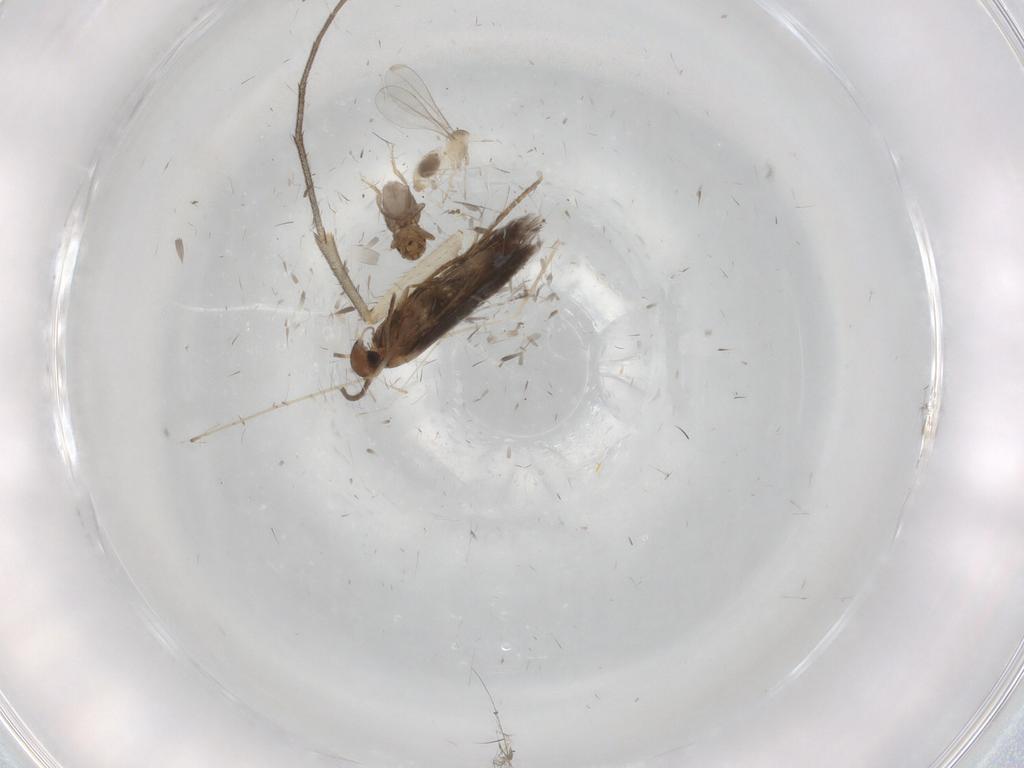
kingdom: Animalia
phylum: Arthropoda
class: Insecta
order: Diptera
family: Mycetophilidae
